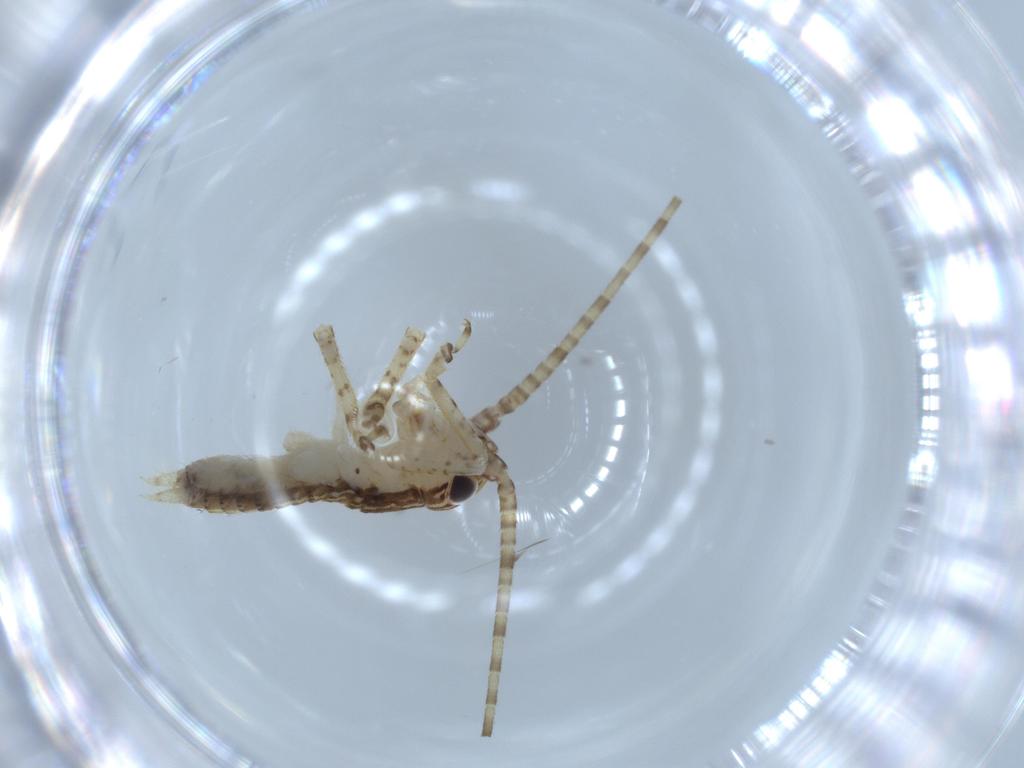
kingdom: Animalia
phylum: Arthropoda
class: Insecta
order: Orthoptera
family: Gryllidae
